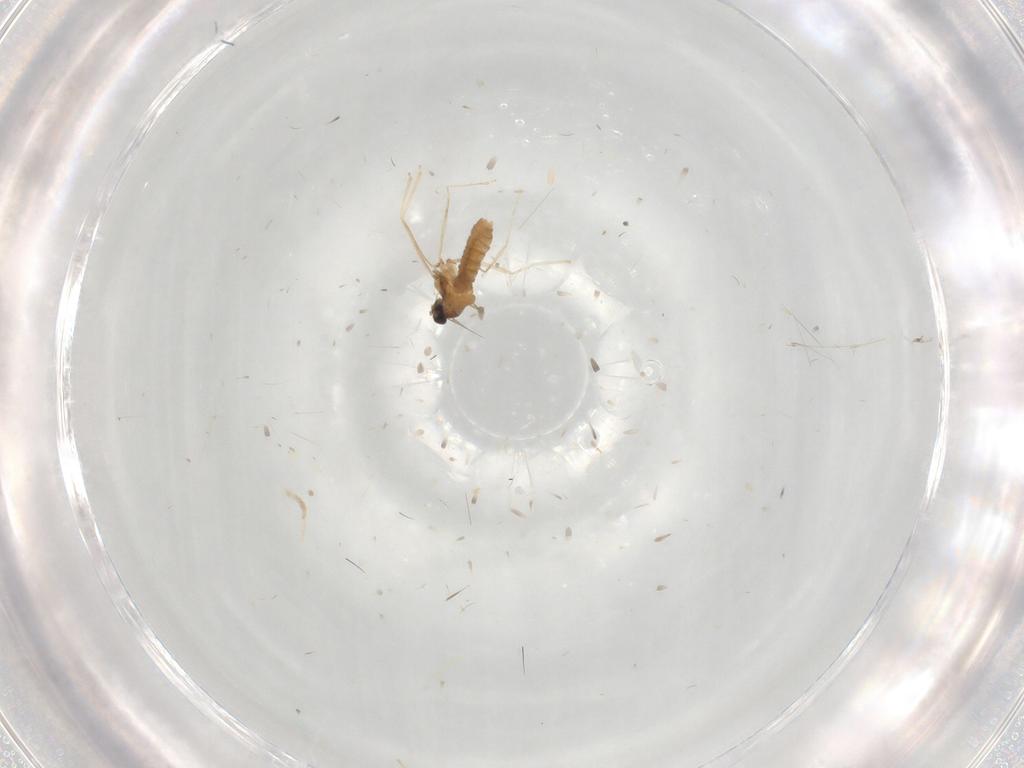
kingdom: Animalia
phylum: Arthropoda
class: Insecta
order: Diptera
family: Cecidomyiidae
